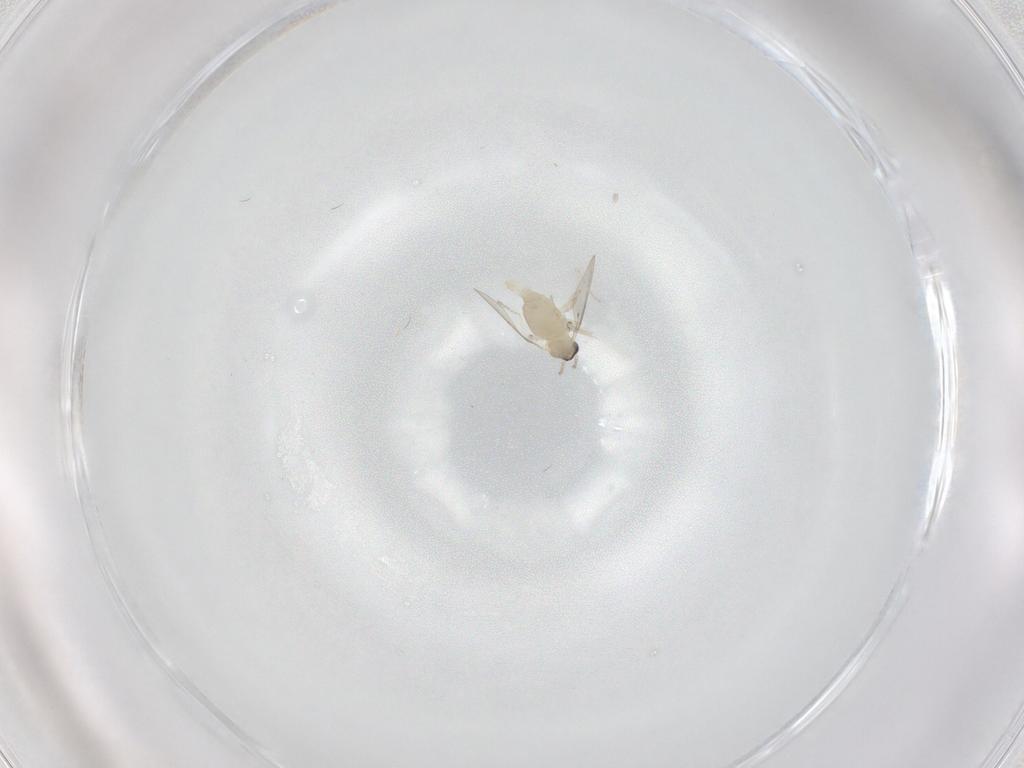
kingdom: Animalia
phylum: Arthropoda
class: Insecta
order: Diptera
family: Cecidomyiidae
